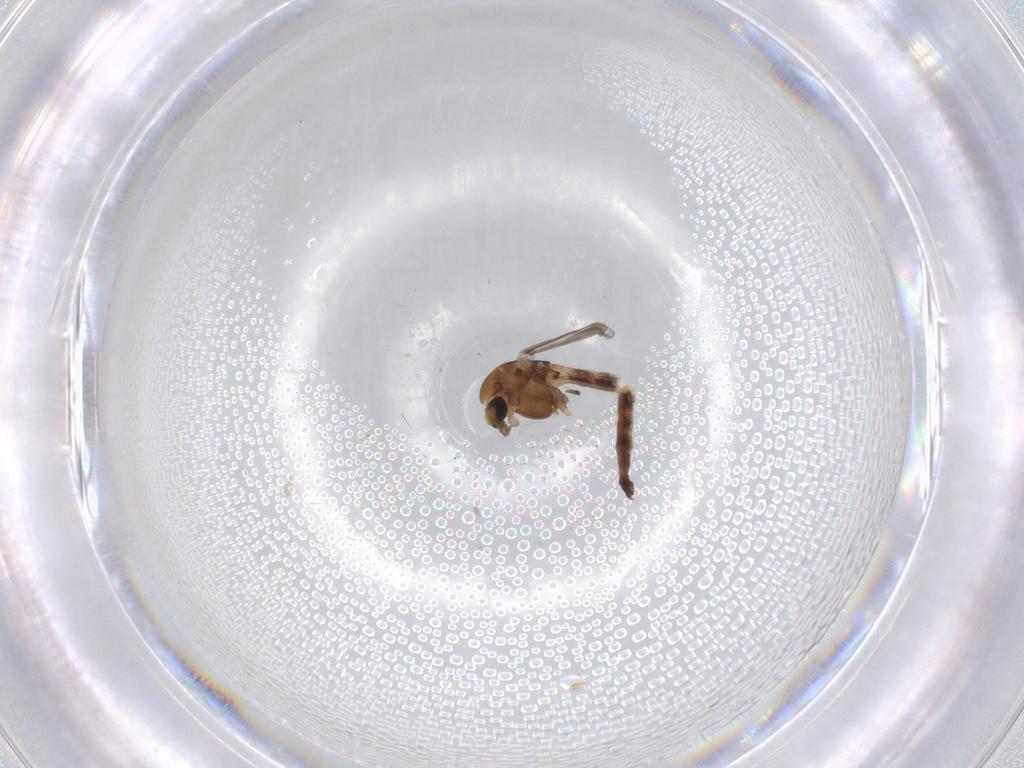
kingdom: Animalia
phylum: Arthropoda
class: Insecta
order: Diptera
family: Chironomidae
